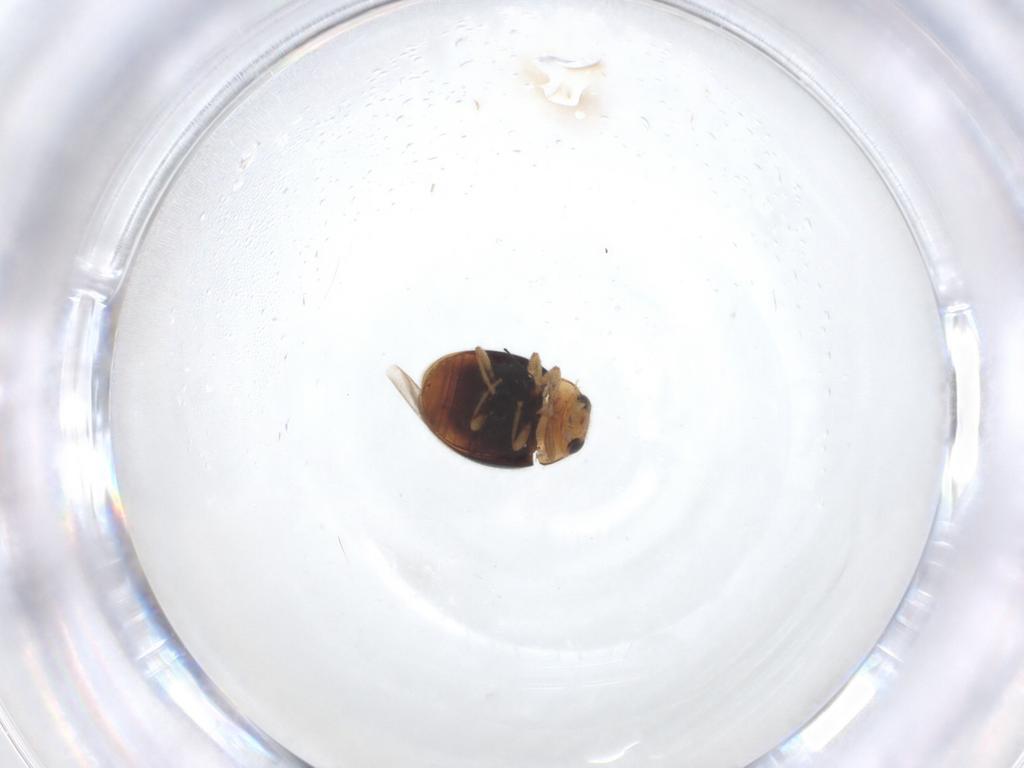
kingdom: Animalia
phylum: Arthropoda
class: Insecta
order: Coleoptera
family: Coccinellidae
